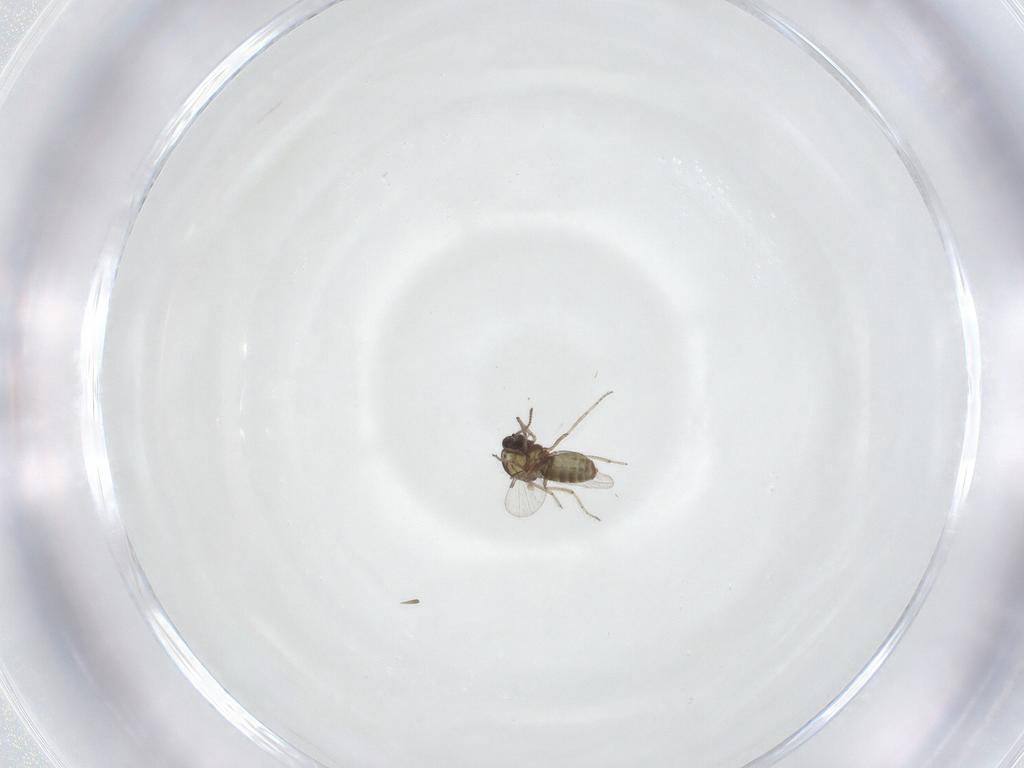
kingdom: Animalia
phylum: Arthropoda
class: Insecta
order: Diptera
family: Ceratopogonidae
